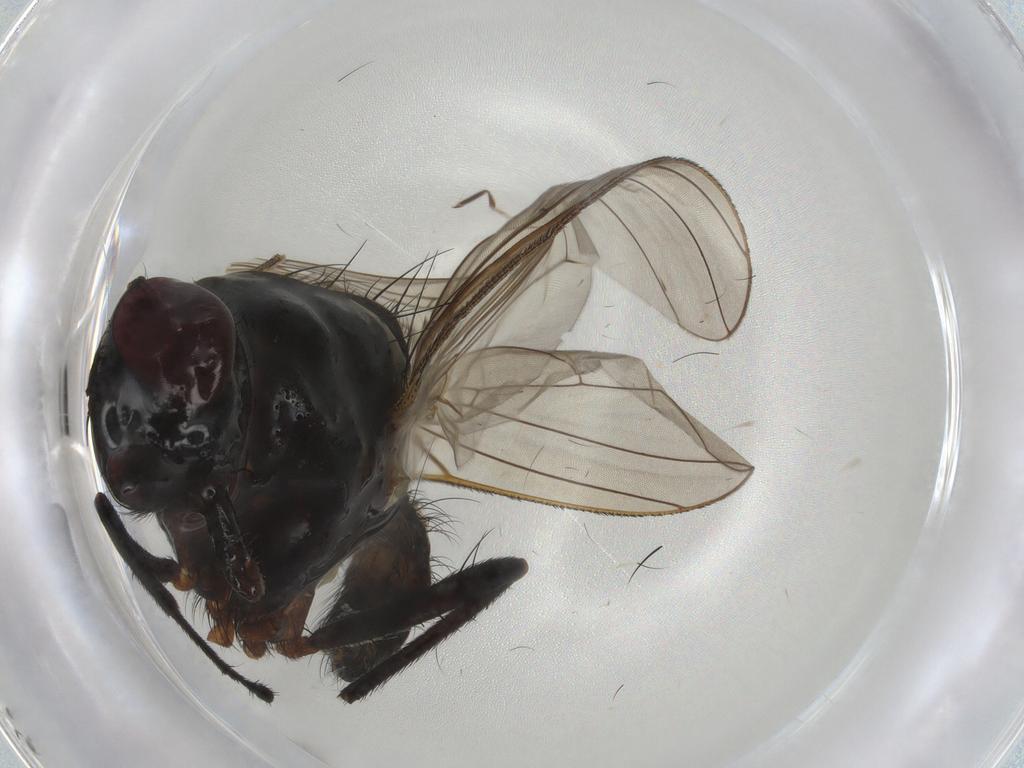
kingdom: Animalia
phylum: Arthropoda
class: Insecta
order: Diptera
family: Anthomyiidae
